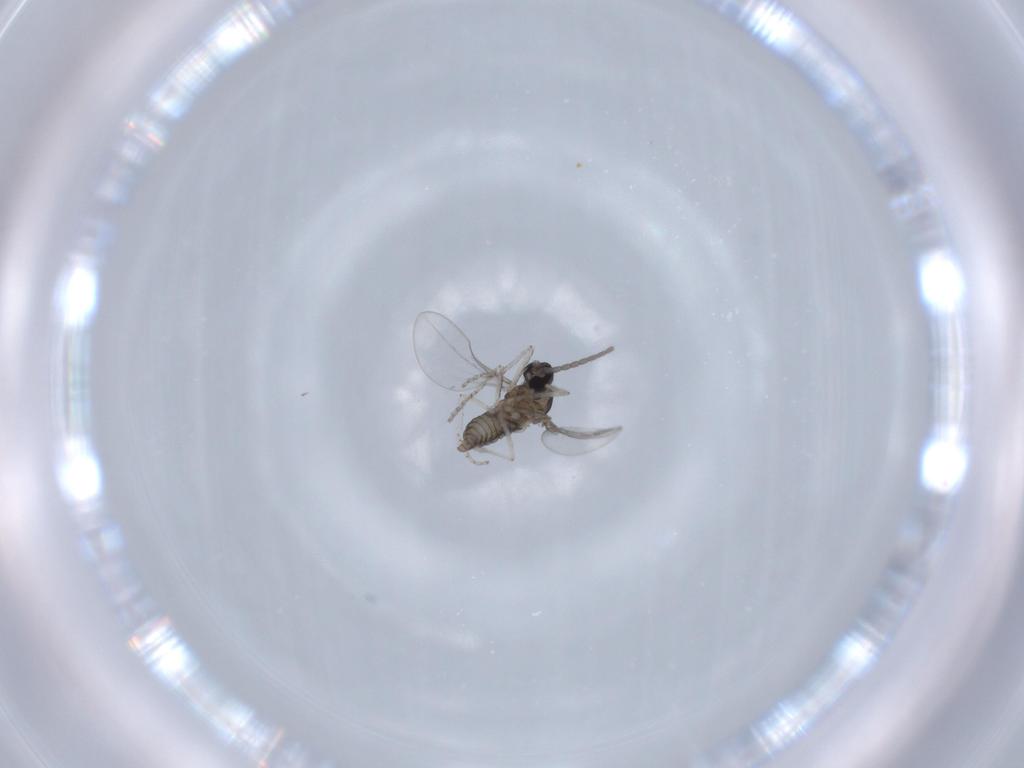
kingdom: Animalia
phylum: Arthropoda
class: Insecta
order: Diptera
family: Cecidomyiidae
